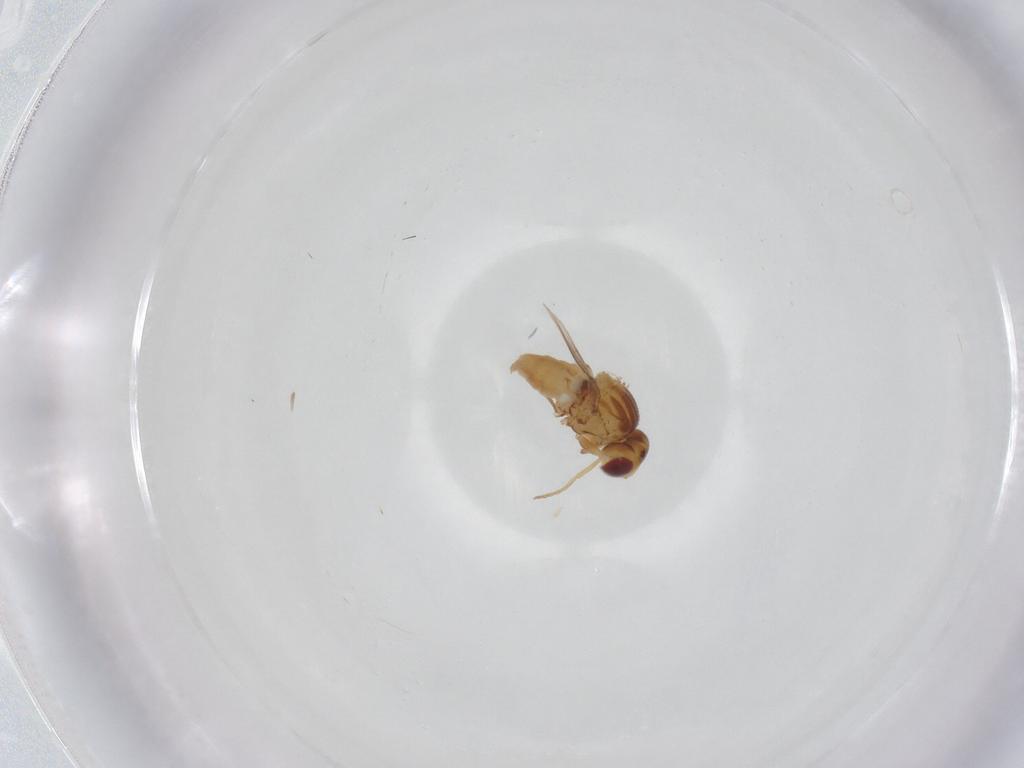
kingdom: Animalia
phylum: Arthropoda
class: Insecta
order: Diptera
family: Chloropidae
